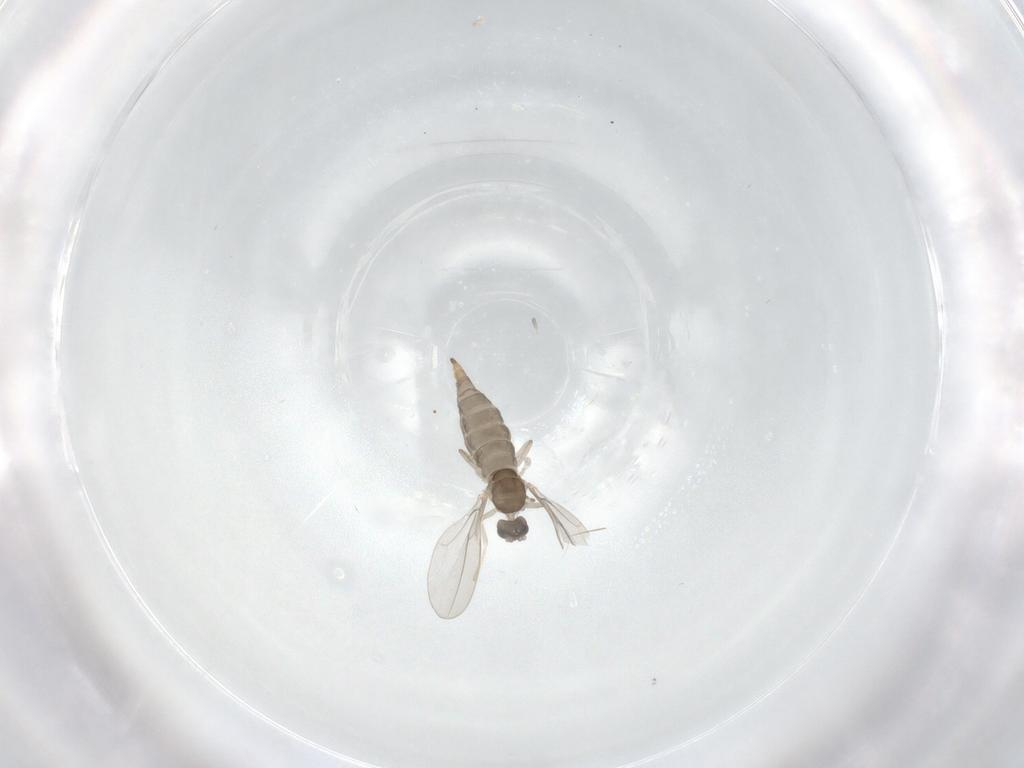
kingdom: Animalia
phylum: Arthropoda
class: Insecta
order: Diptera
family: Cecidomyiidae
